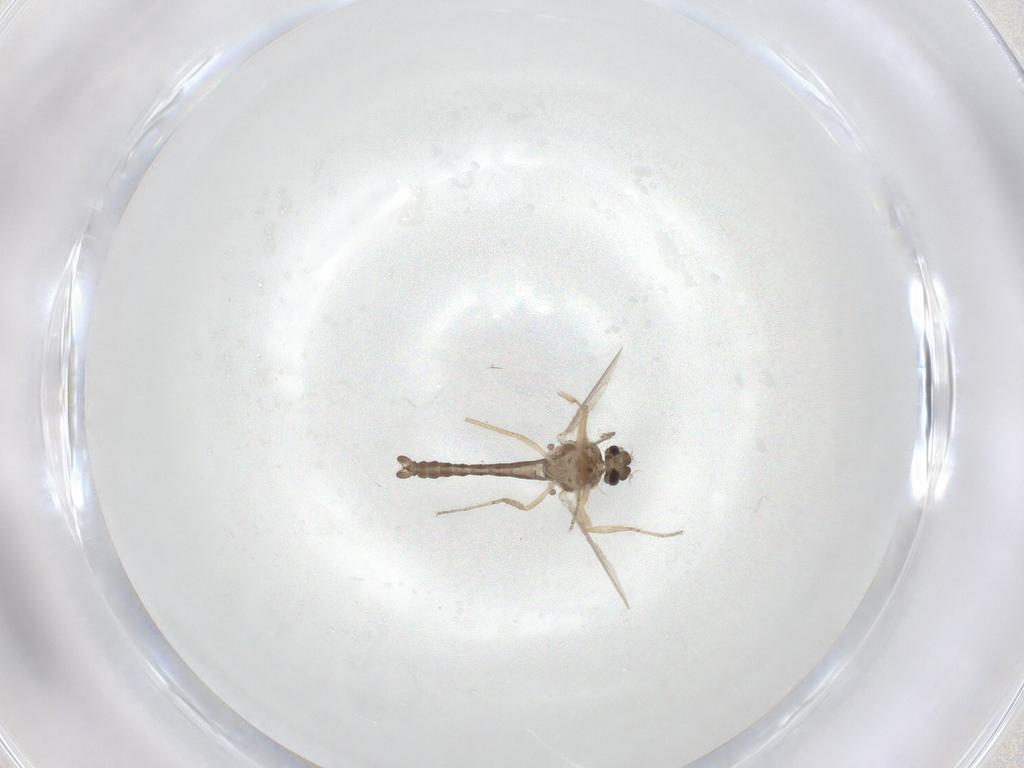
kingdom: Animalia
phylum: Arthropoda
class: Insecta
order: Diptera
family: Ceratopogonidae
